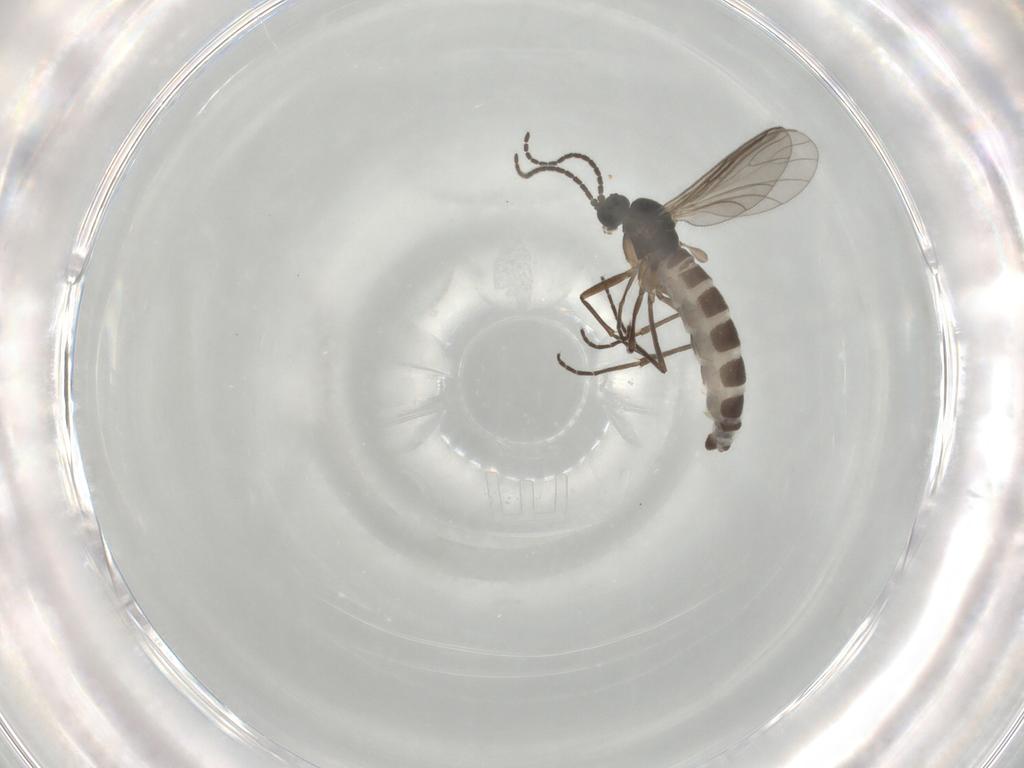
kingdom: Animalia
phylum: Arthropoda
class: Insecta
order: Diptera
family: Sciaridae
